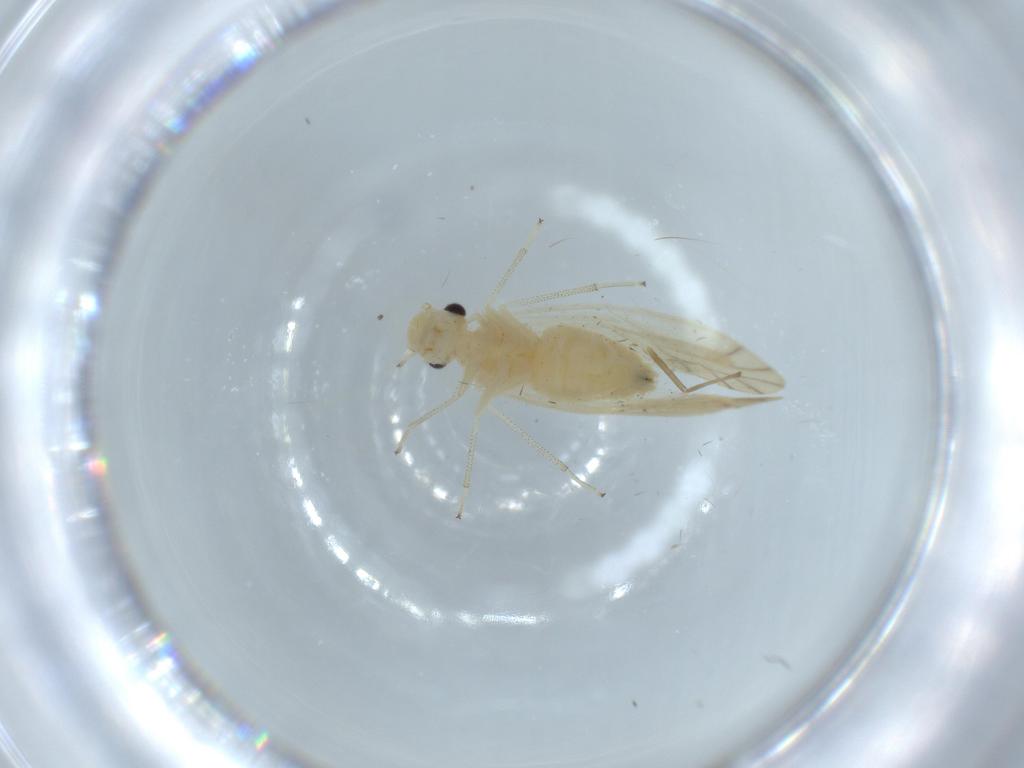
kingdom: Animalia
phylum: Arthropoda
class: Insecta
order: Psocodea
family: Caeciliusidae
